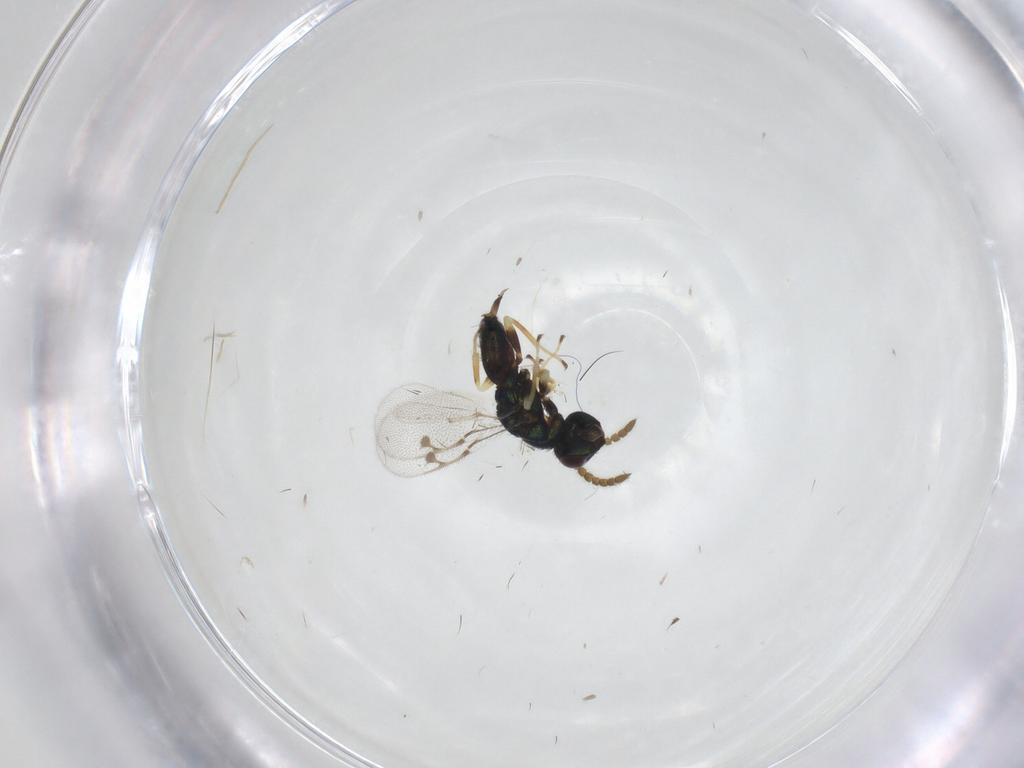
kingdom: Animalia
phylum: Arthropoda
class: Insecta
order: Hymenoptera
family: Pirenidae
